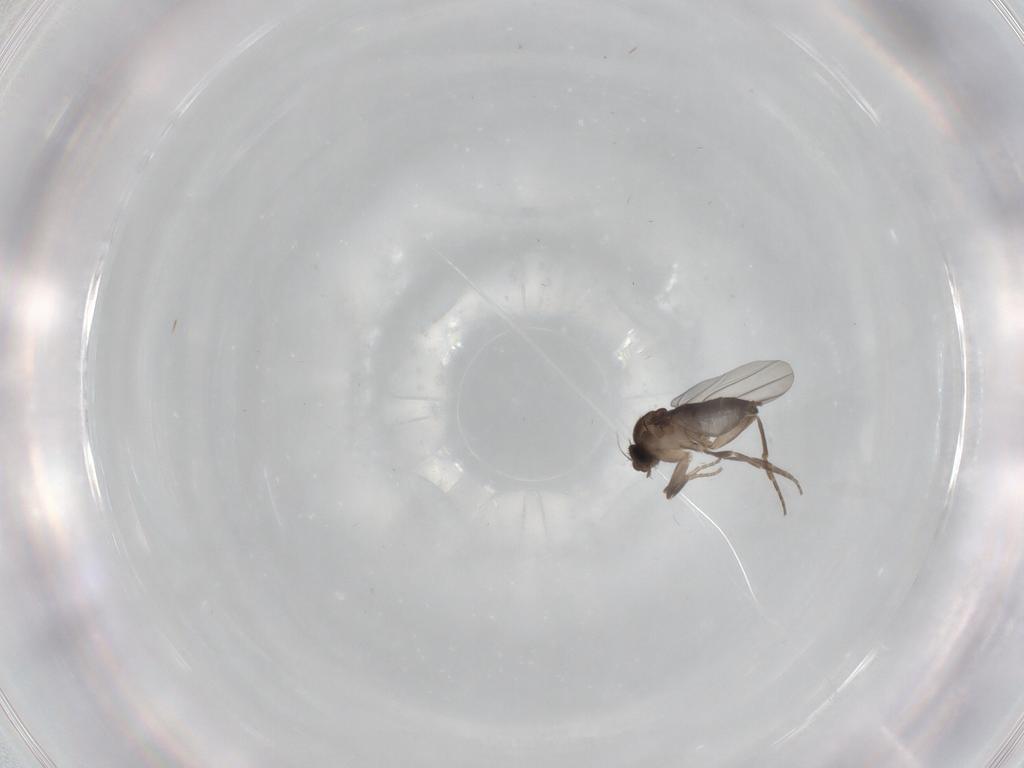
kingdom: Animalia
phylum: Arthropoda
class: Insecta
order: Diptera
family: Phoridae
